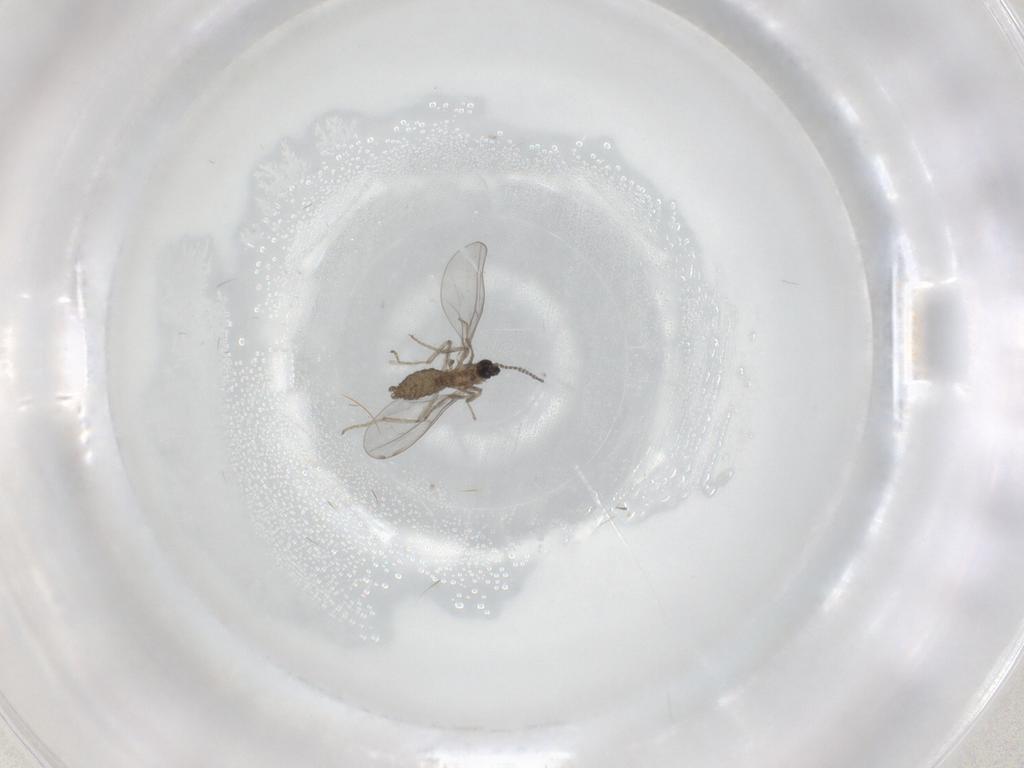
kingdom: Animalia
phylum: Arthropoda
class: Insecta
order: Diptera
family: Cecidomyiidae
